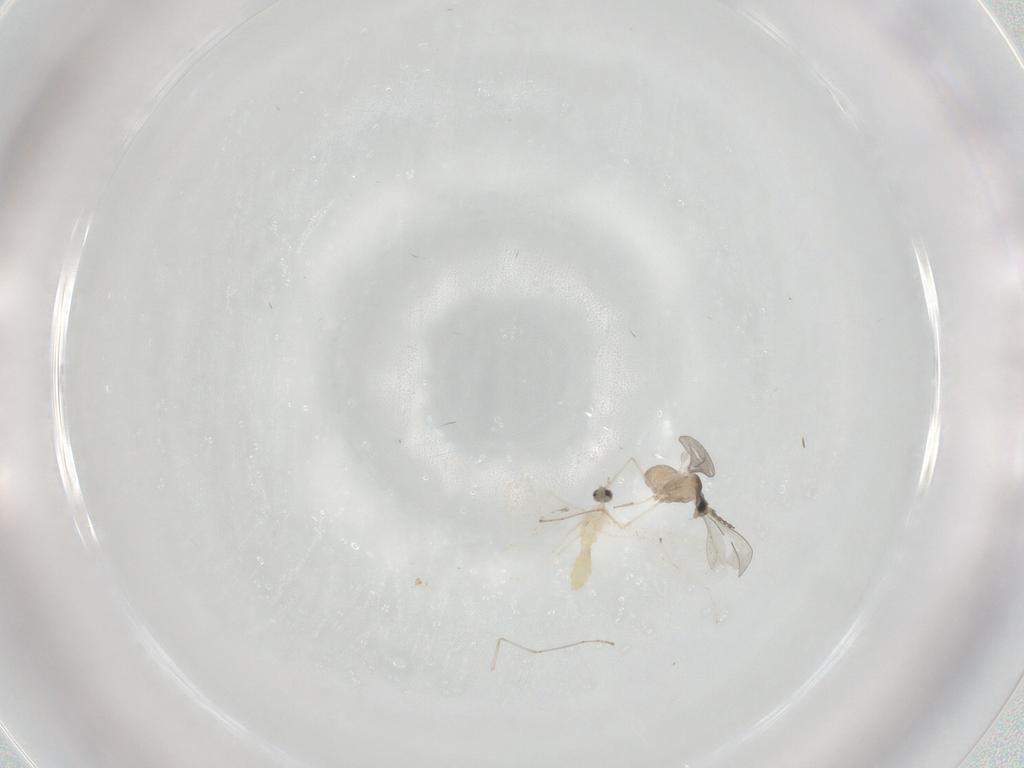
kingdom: Animalia
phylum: Arthropoda
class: Insecta
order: Diptera
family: Cecidomyiidae
